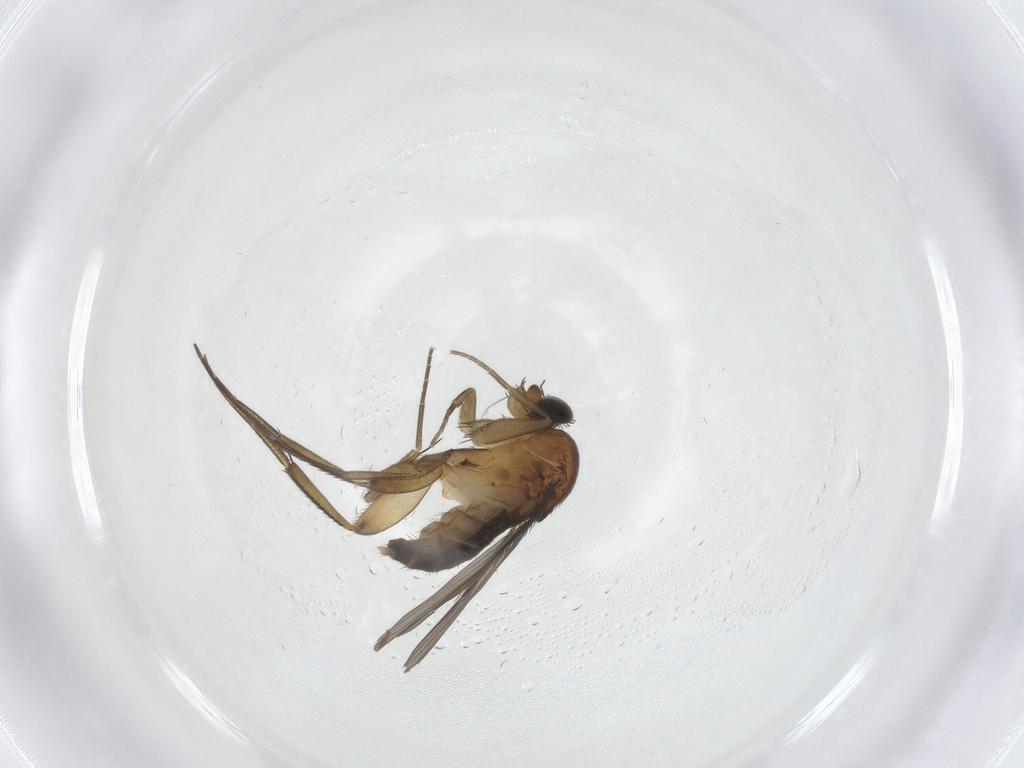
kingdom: Animalia
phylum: Arthropoda
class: Insecta
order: Diptera
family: Phoridae
